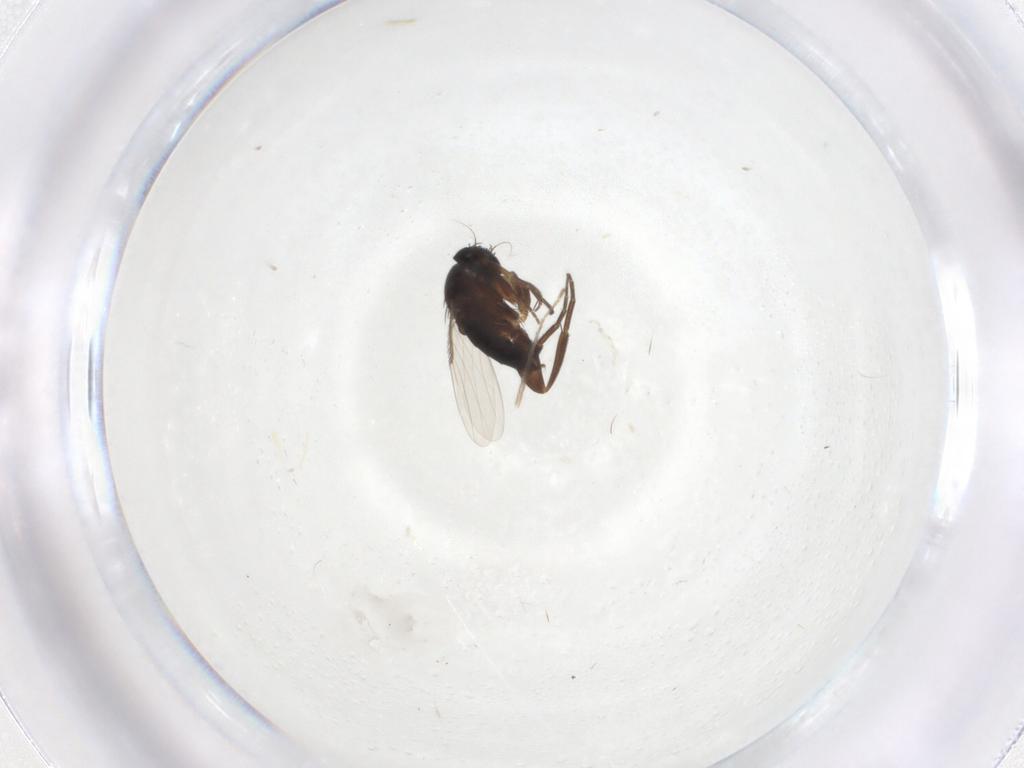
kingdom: Animalia
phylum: Arthropoda
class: Insecta
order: Diptera
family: Phoridae
